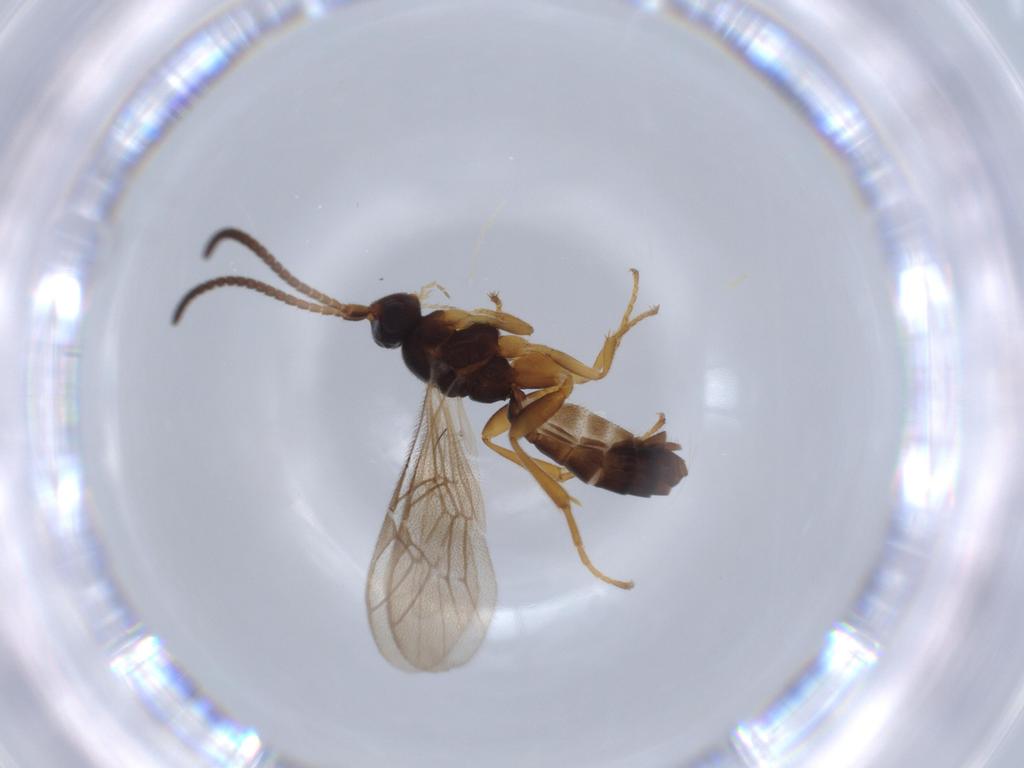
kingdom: Animalia
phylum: Arthropoda
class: Insecta
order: Hymenoptera
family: Ichneumonidae
